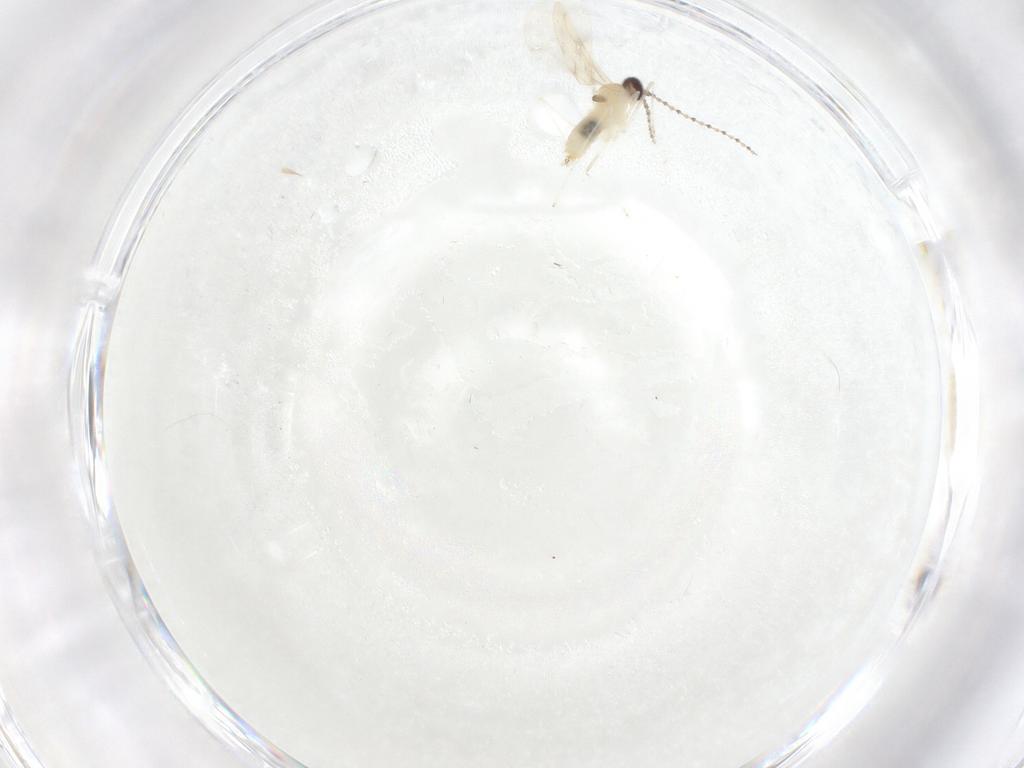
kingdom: Animalia
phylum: Arthropoda
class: Insecta
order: Diptera
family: Cecidomyiidae
